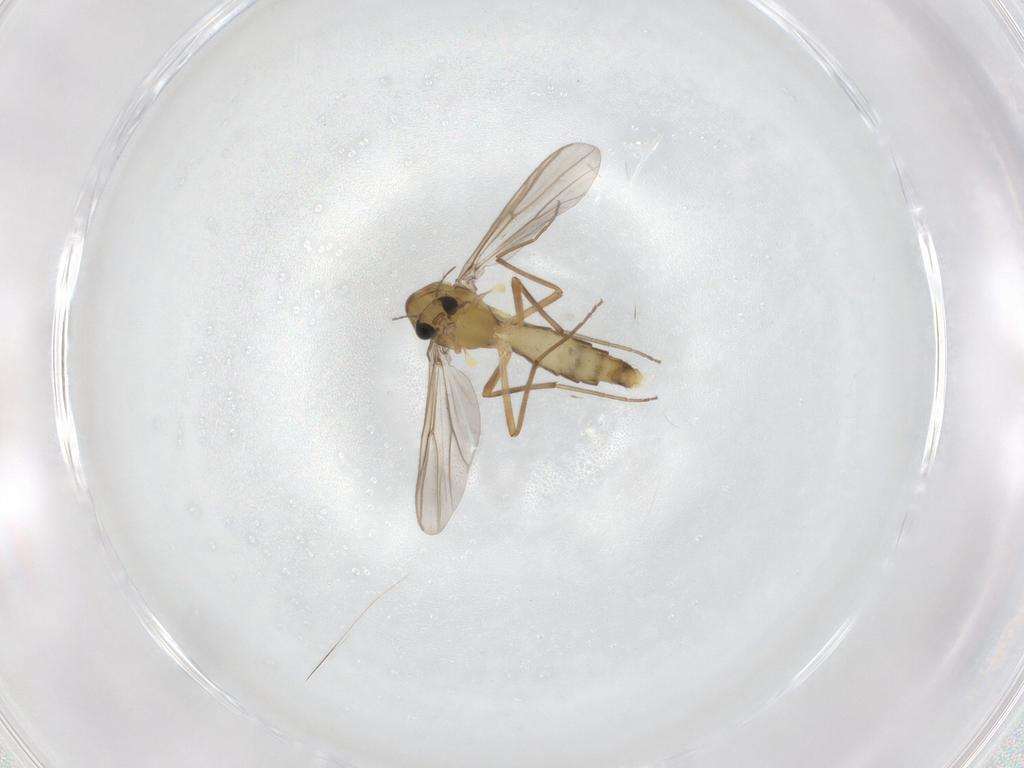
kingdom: Animalia
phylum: Arthropoda
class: Insecta
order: Diptera
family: Chironomidae
